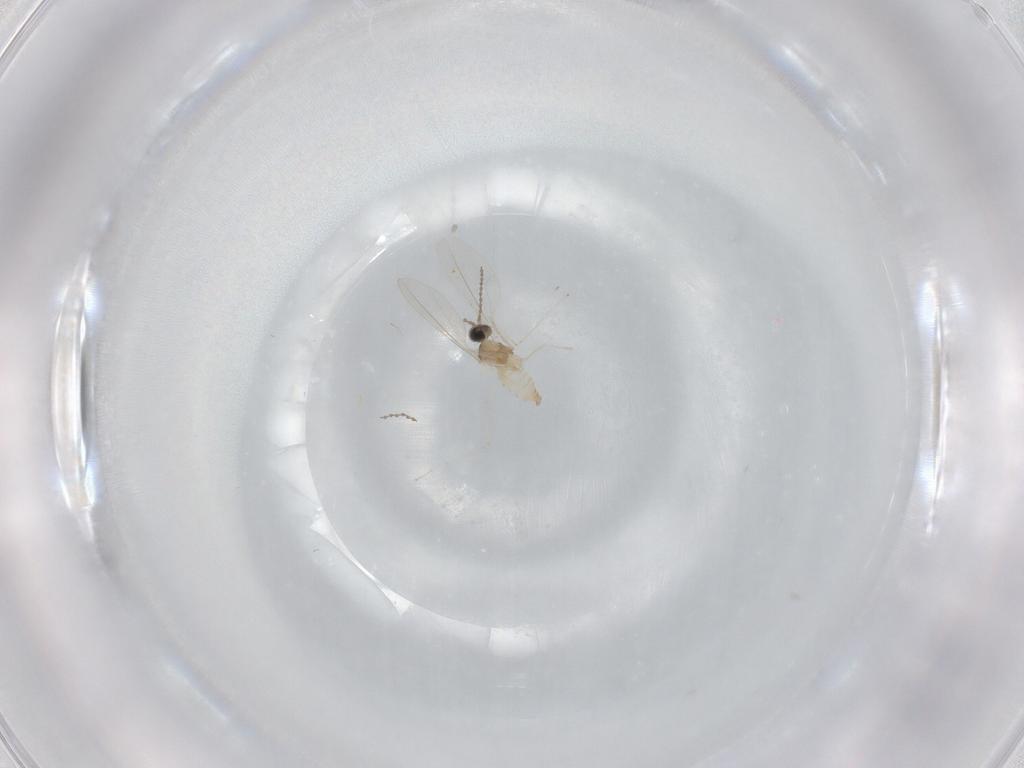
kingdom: Animalia
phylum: Arthropoda
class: Insecta
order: Diptera
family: Cecidomyiidae
